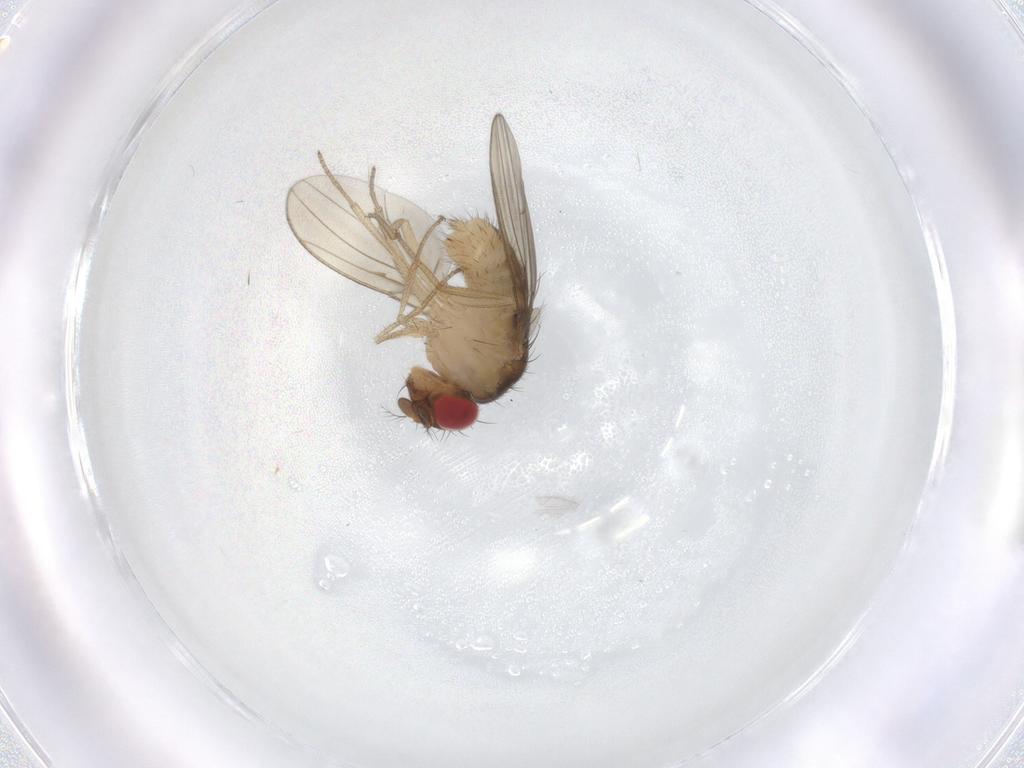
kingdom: Animalia
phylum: Arthropoda
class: Insecta
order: Diptera
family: Drosophilidae
